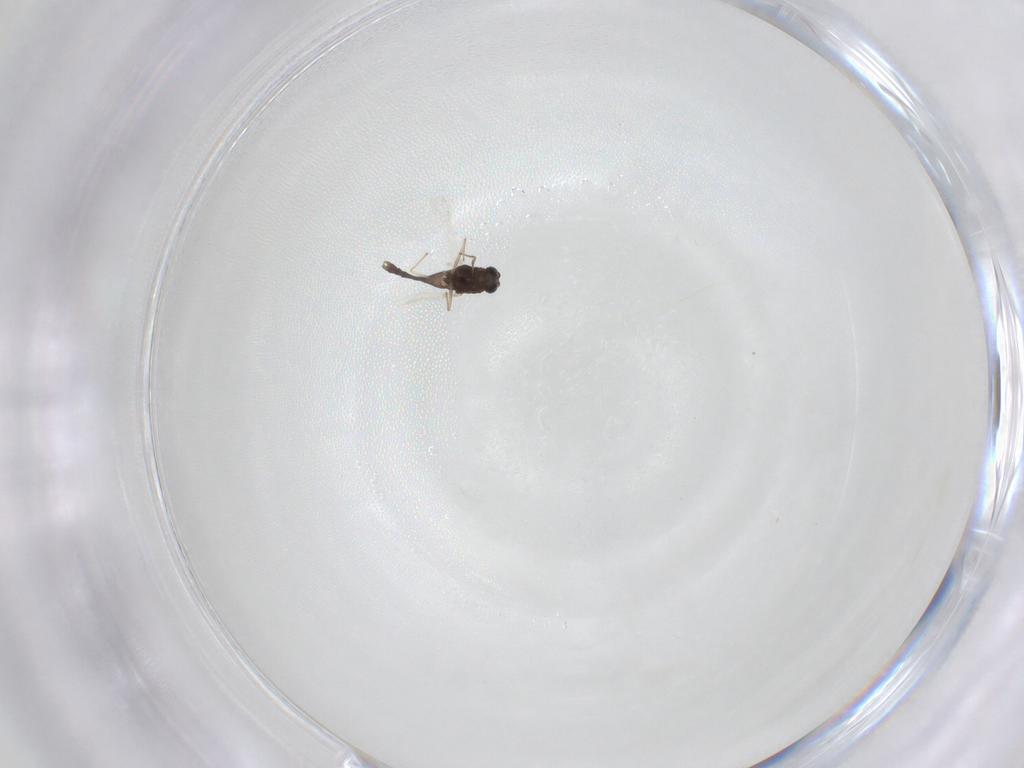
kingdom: Animalia
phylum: Arthropoda
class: Insecta
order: Diptera
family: Chironomidae
